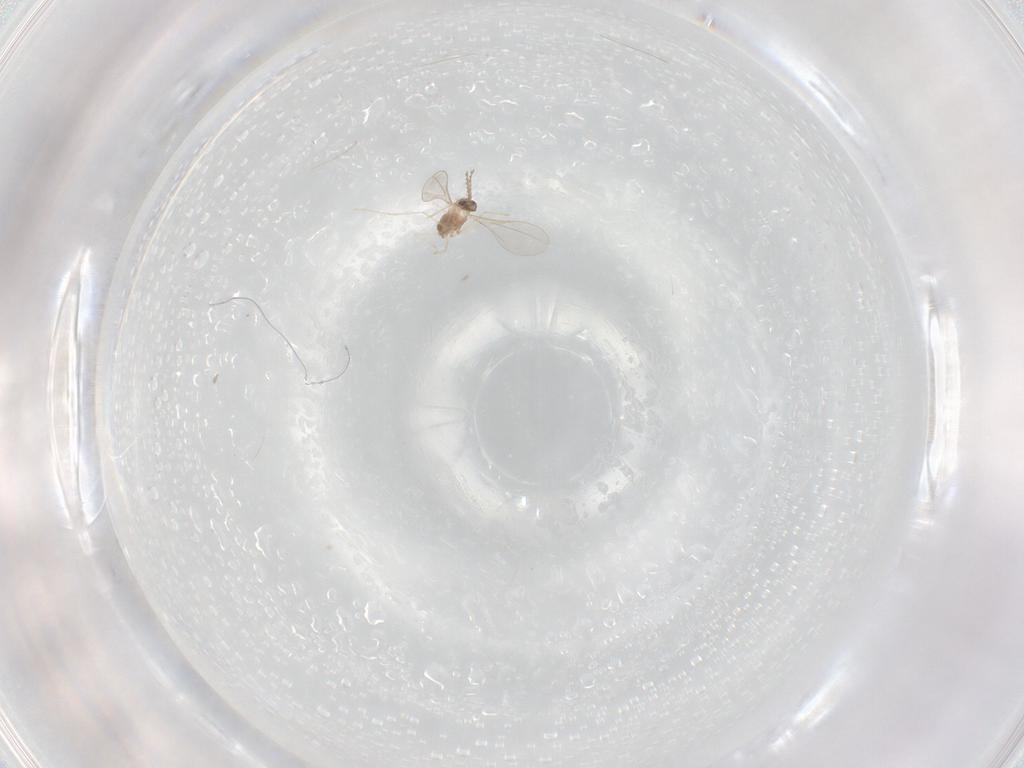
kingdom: Animalia
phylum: Arthropoda
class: Insecta
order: Diptera
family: Cecidomyiidae
